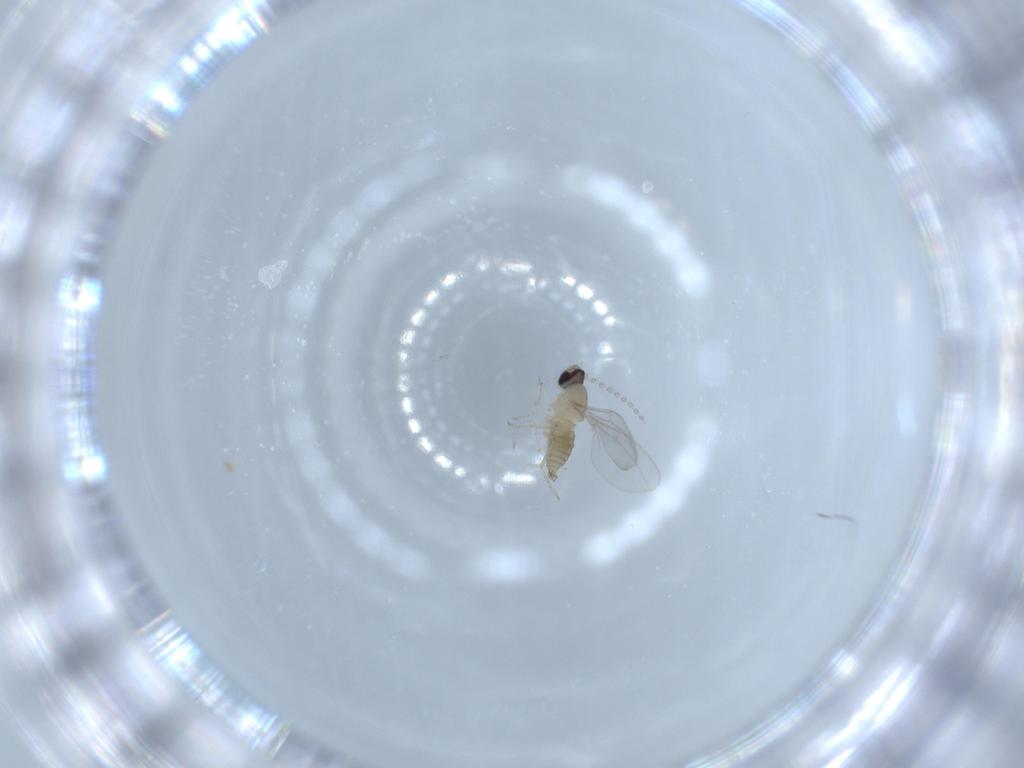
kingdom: Animalia
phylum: Arthropoda
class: Insecta
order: Diptera
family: Cecidomyiidae
